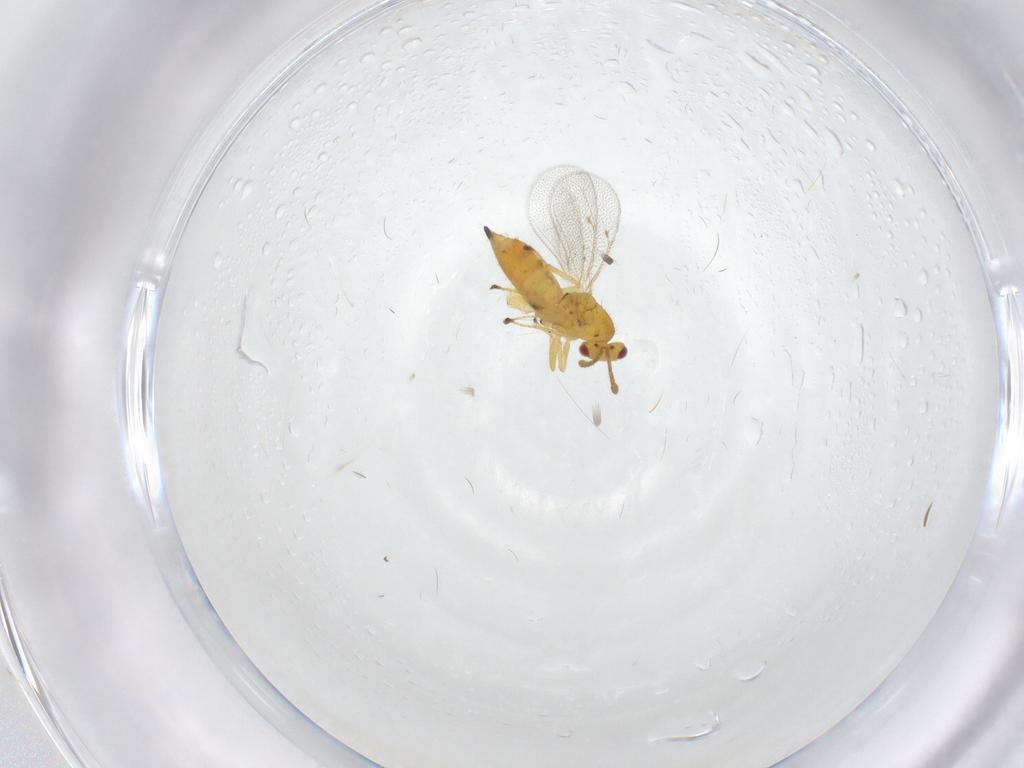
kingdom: Animalia
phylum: Arthropoda
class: Insecta
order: Hymenoptera
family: Eulophidae
